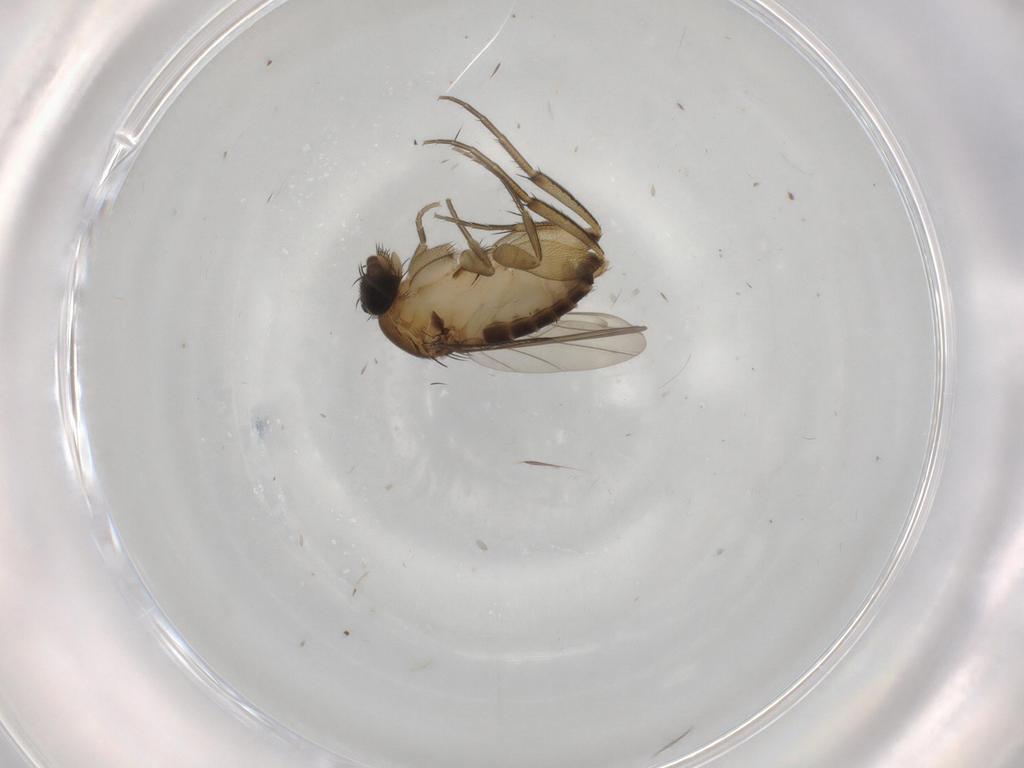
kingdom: Animalia
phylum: Arthropoda
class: Insecta
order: Diptera
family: Phoridae
